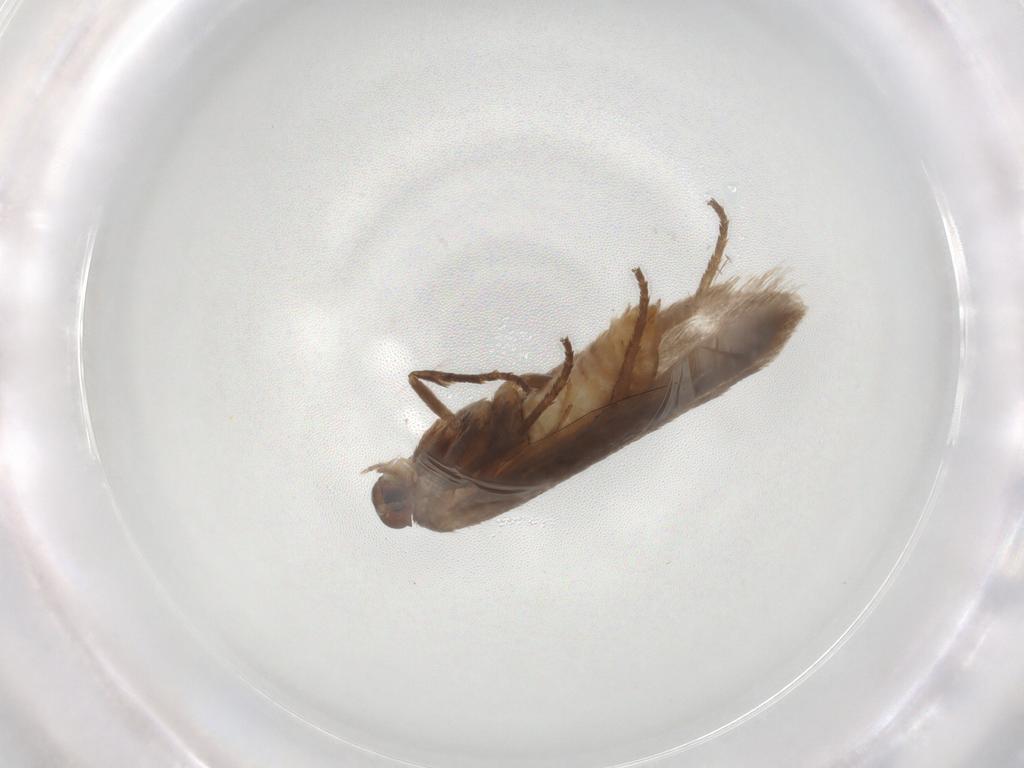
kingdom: Animalia
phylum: Arthropoda
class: Insecta
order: Lepidoptera
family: Limacodidae
